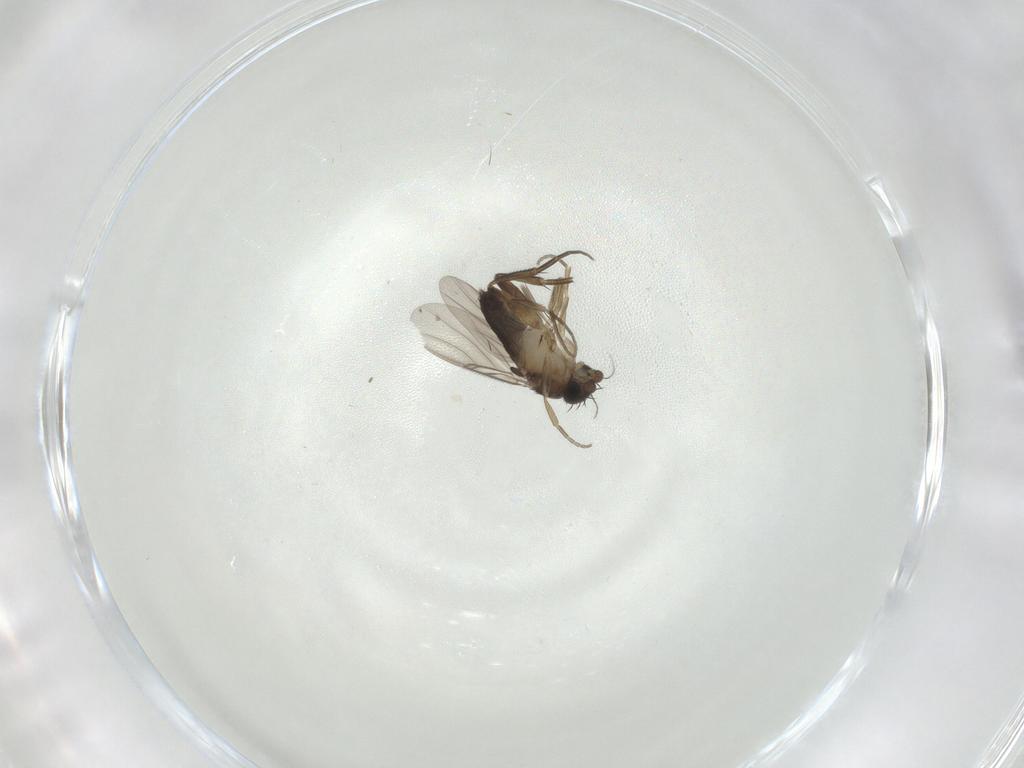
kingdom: Animalia
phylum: Arthropoda
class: Insecta
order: Diptera
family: Phoridae
